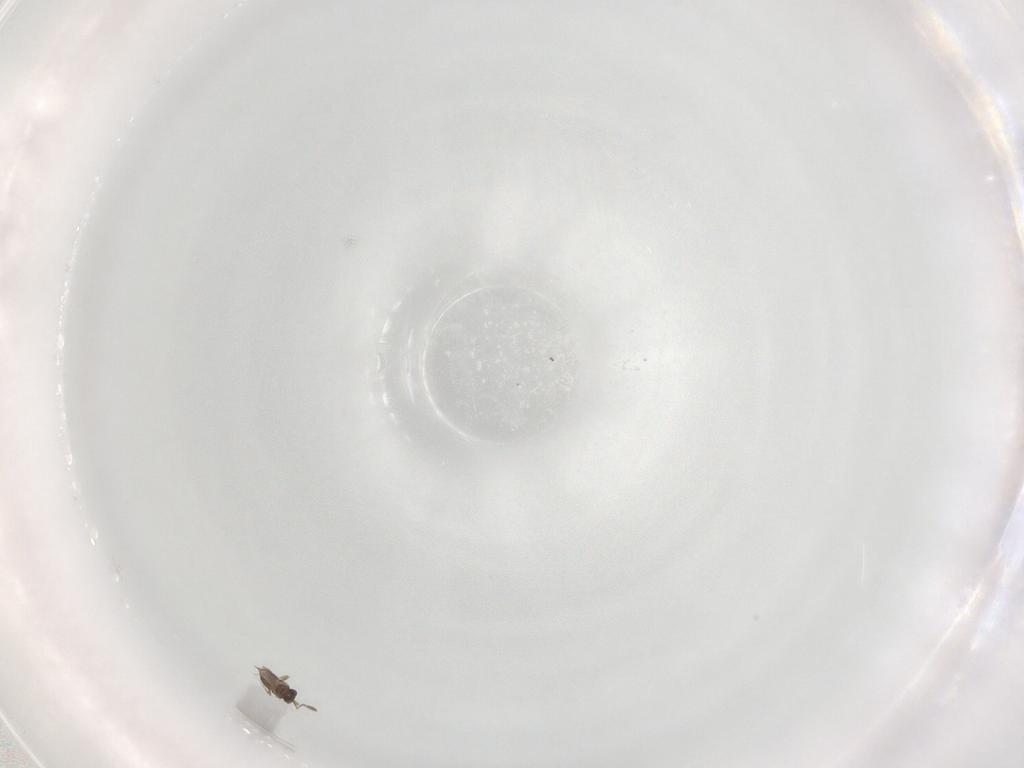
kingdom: Animalia
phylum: Arthropoda
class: Insecta
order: Hymenoptera
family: Mymaridae
